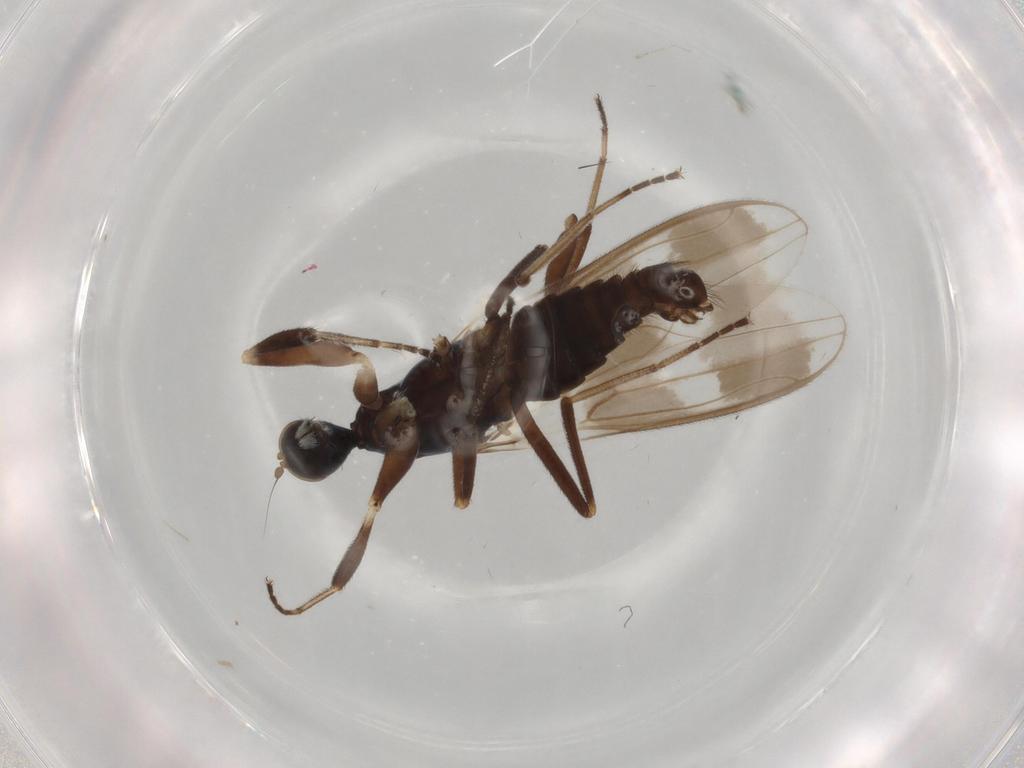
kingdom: Animalia
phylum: Arthropoda
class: Insecta
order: Diptera
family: Hybotidae
